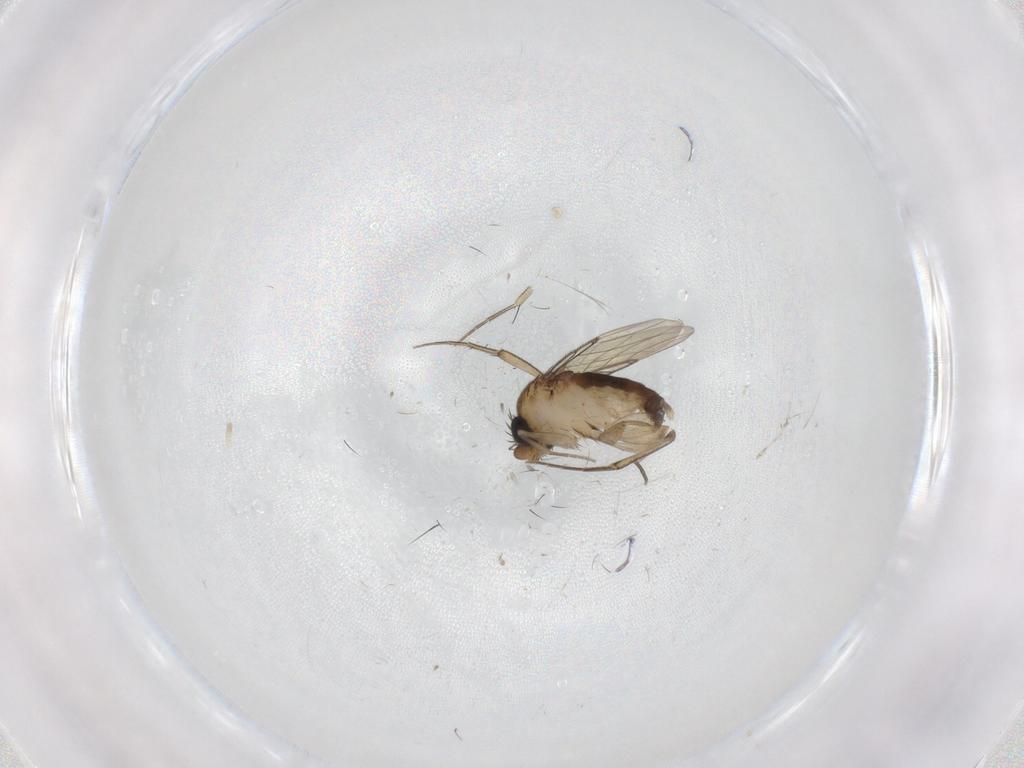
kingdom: Animalia
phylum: Arthropoda
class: Insecta
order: Diptera
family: Phoridae
